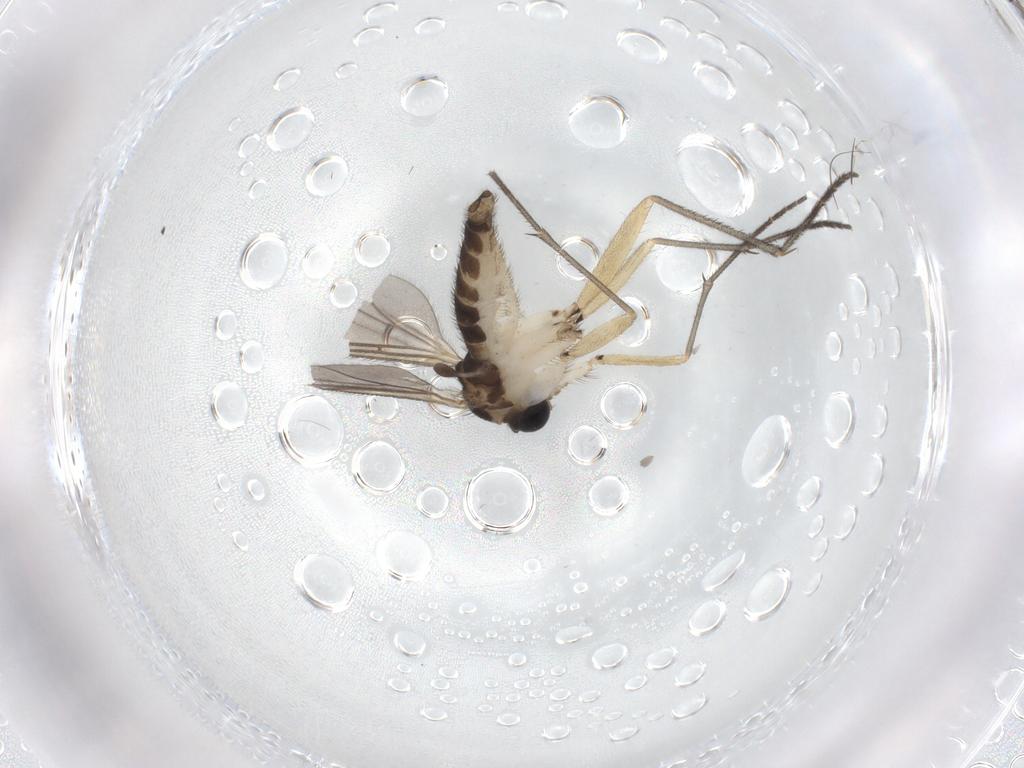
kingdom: Animalia
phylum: Arthropoda
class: Insecta
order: Diptera
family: Sciaridae
